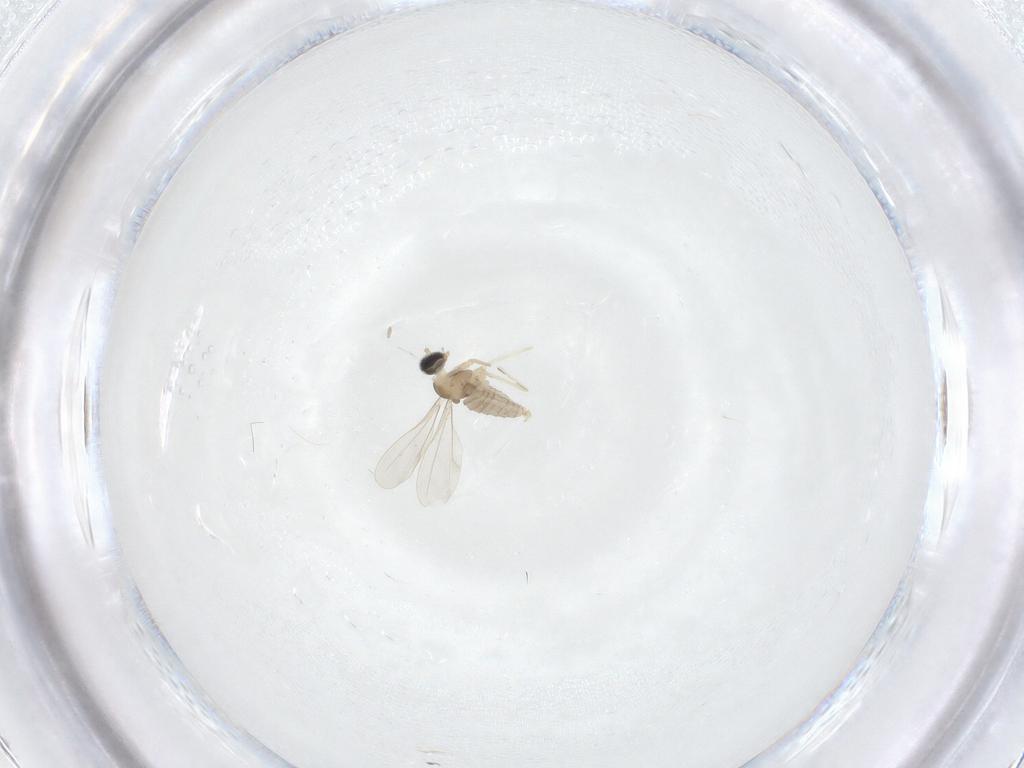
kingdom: Animalia
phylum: Arthropoda
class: Insecta
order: Diptera
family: Cecidomyiidae
